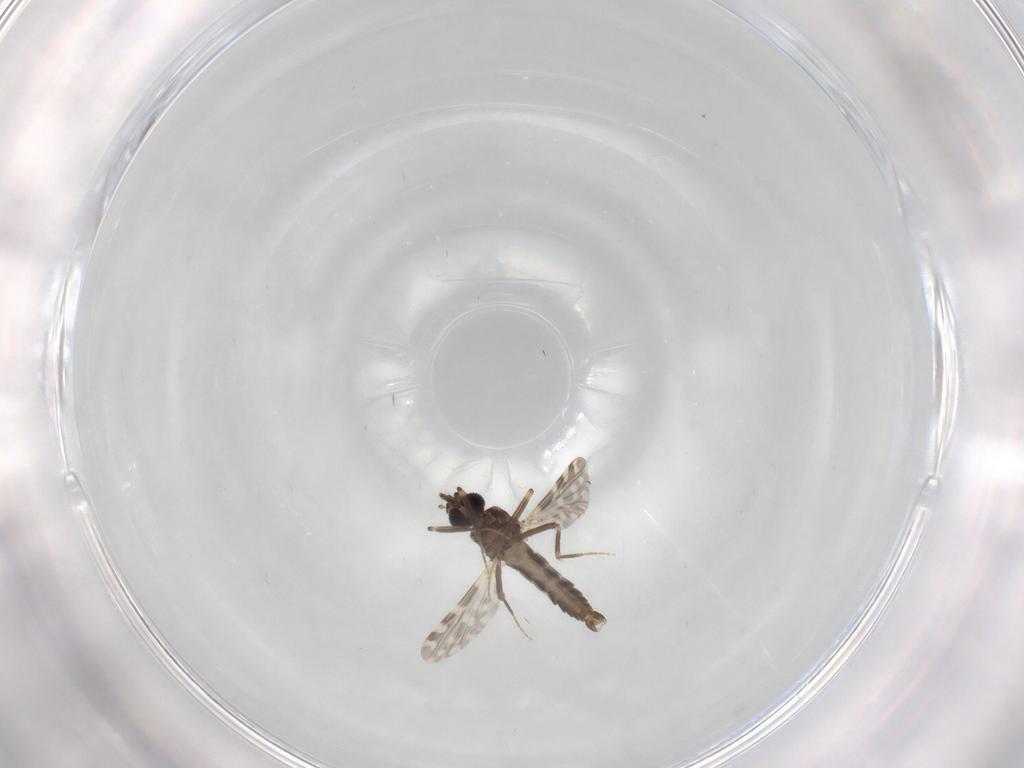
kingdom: Animalia
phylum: Arthropoda
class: Insecta
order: Diptera
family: Ceratopogonidae
